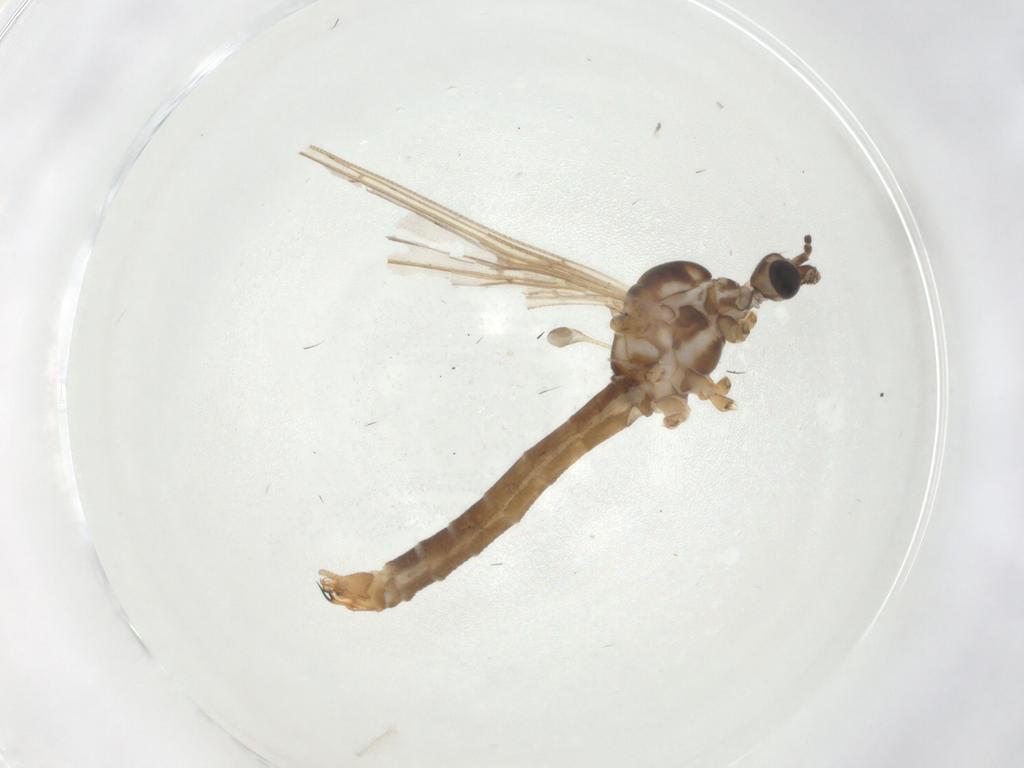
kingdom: Animalia
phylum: Arthropoda
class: Insecta
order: Diptera
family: Limoniidae
